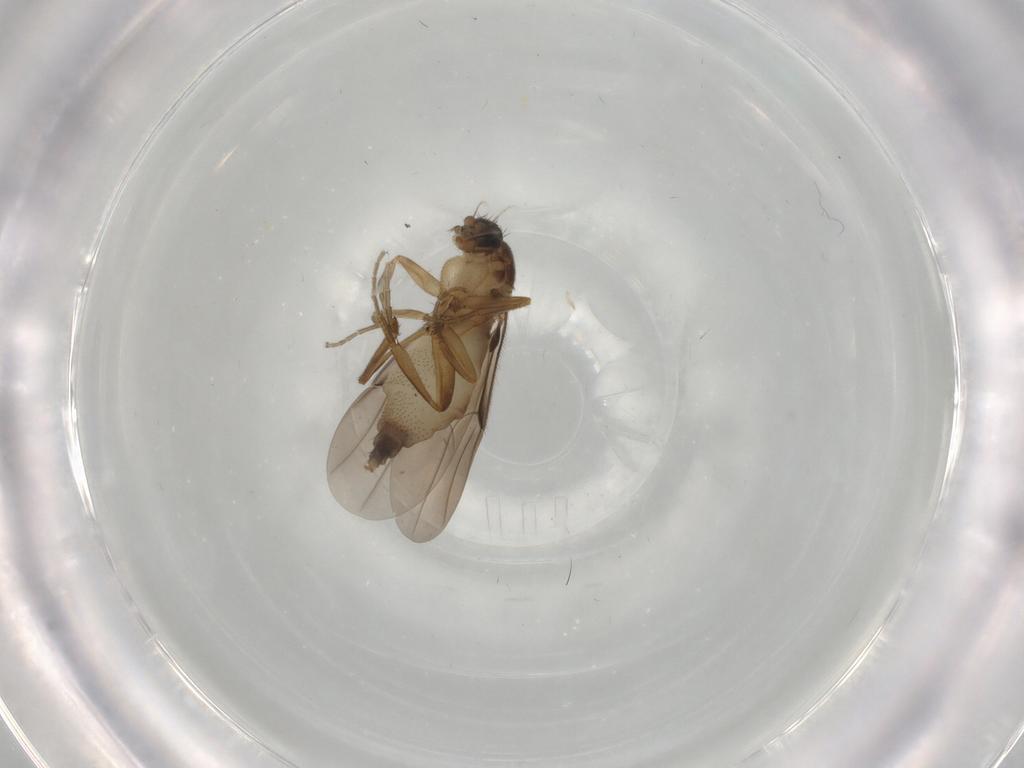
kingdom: Animalia
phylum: Arthropoda
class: Insecta
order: Diptera
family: Phoridae
